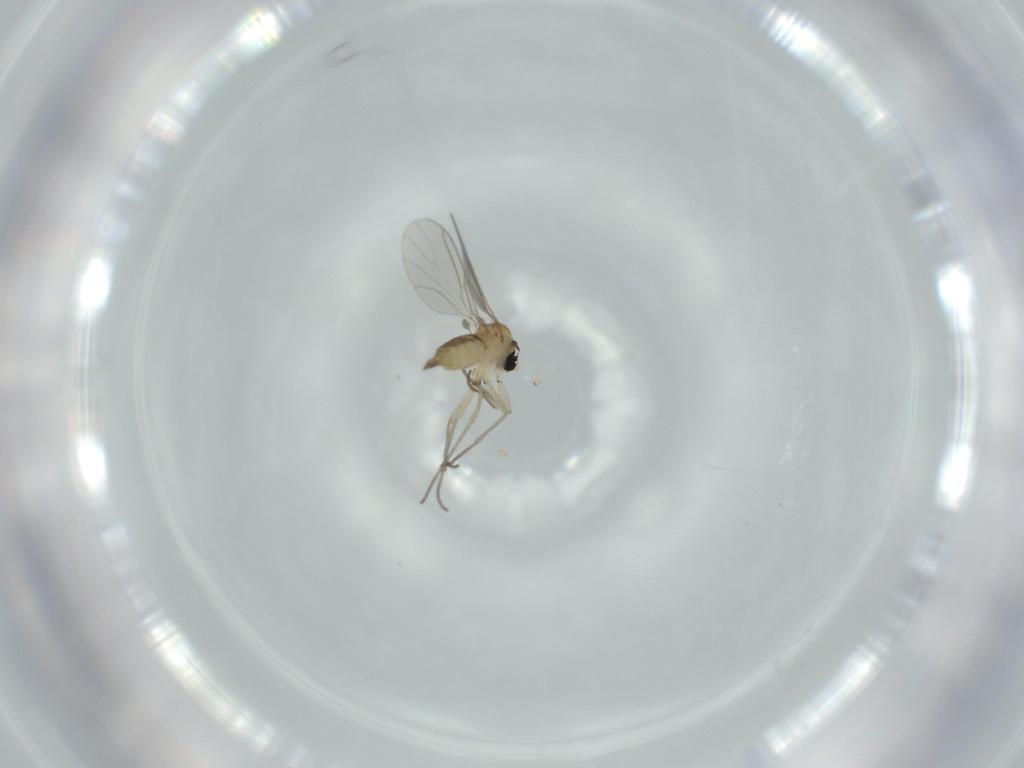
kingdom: Animalia
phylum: Arthropoda
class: Insecta
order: Diptera
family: Sciaridae
